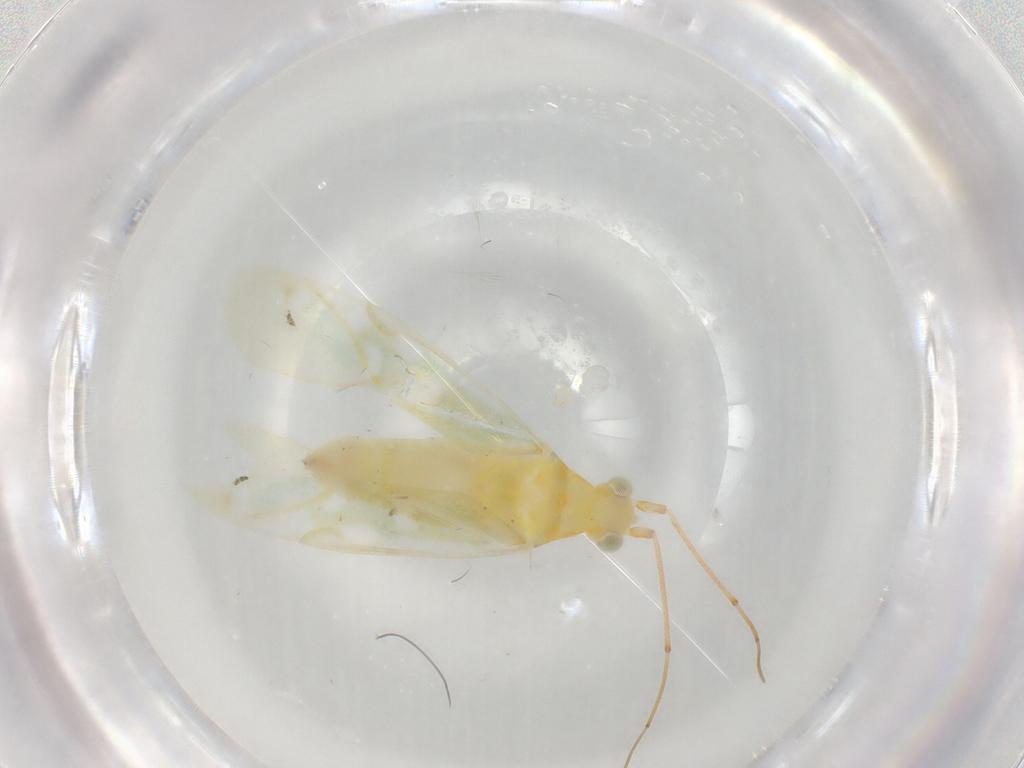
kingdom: Animalia
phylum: Arthropoda
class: Insecta
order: Hemiptera
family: Miridae
